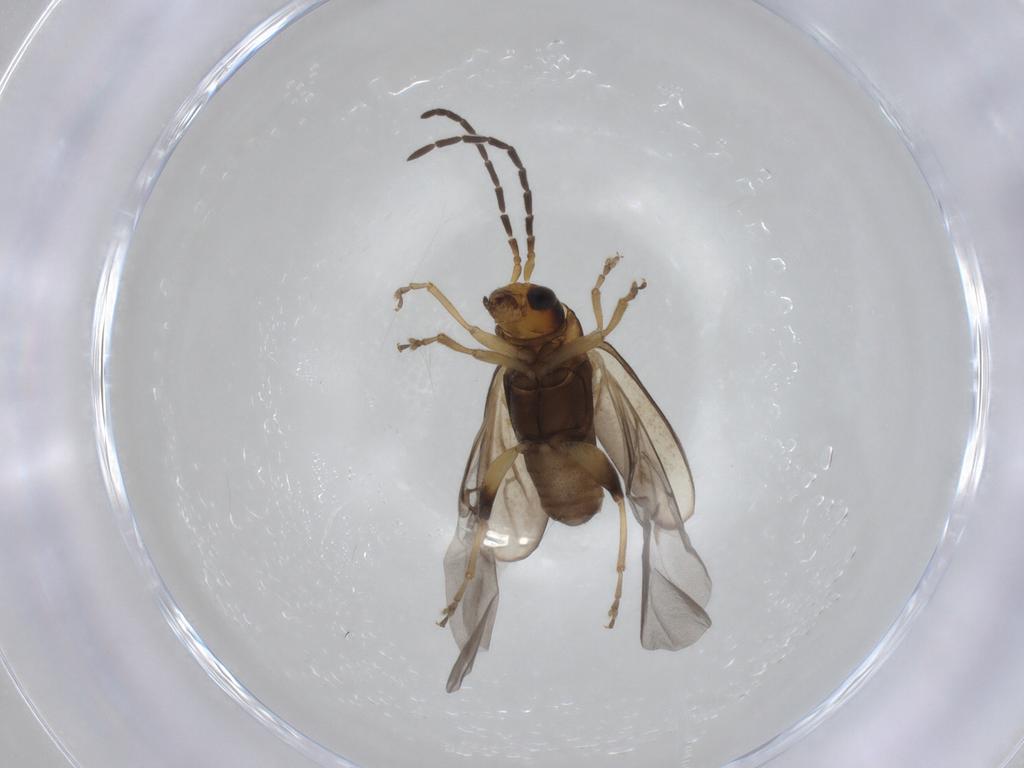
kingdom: Animalia
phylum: Arthropoda
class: Insecta
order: Coleoptera
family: Chrysomelidae
